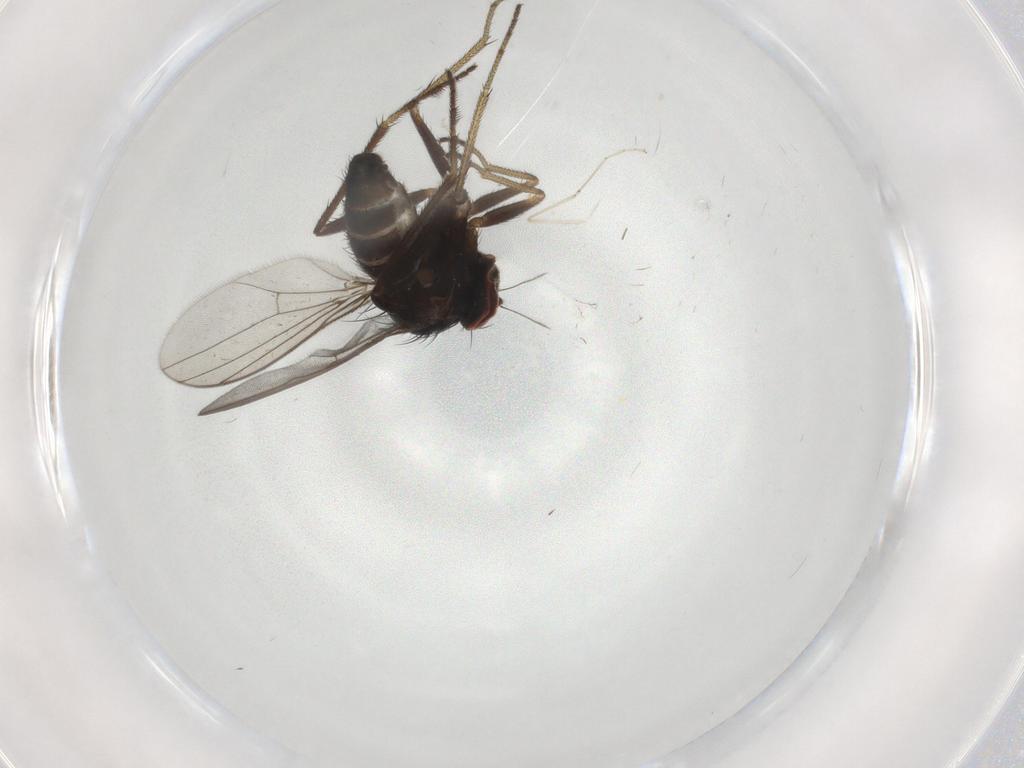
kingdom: Animalia
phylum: Arthropoda
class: Insecta
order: Diptera
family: Dolichopodidae
